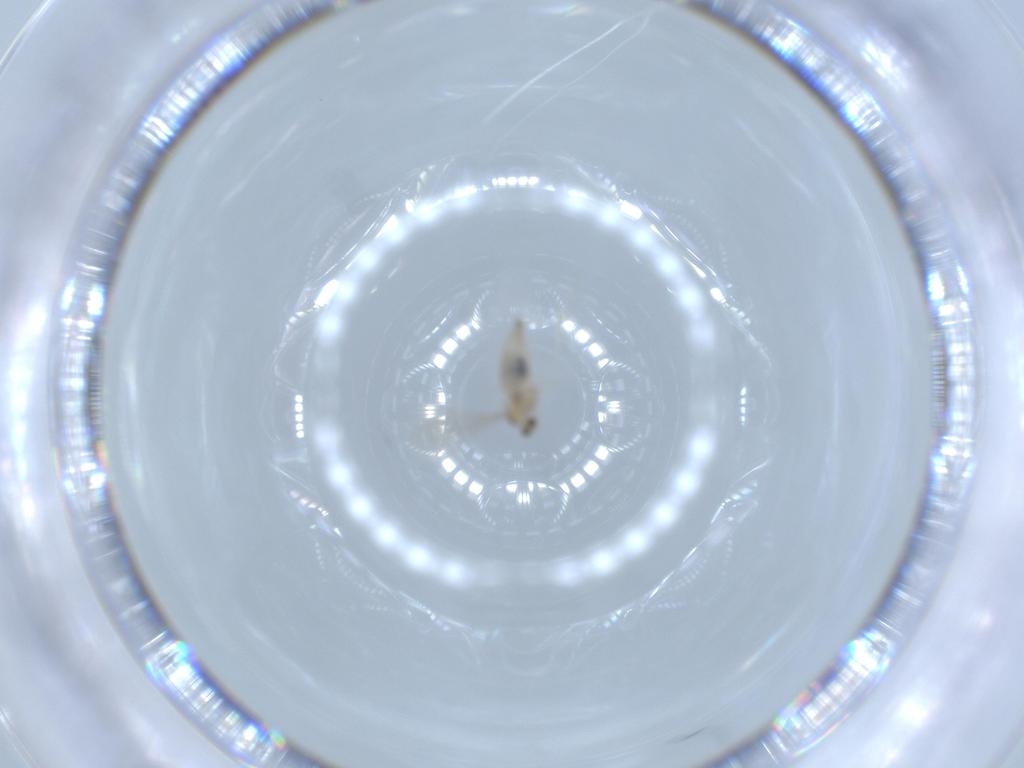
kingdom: Animalia
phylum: Arthropoda
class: Insecta
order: Diptera
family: Cecidomyiidae
